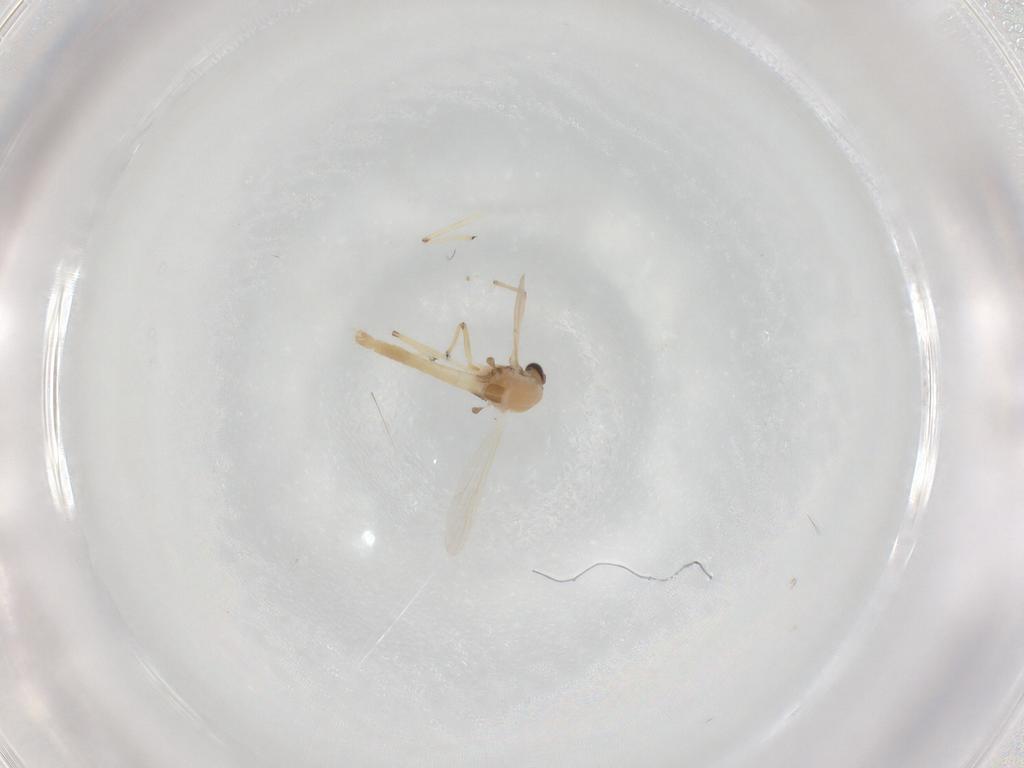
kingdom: Animalia
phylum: Arthropoda
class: Insecta
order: Diptera
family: Chironomidae
